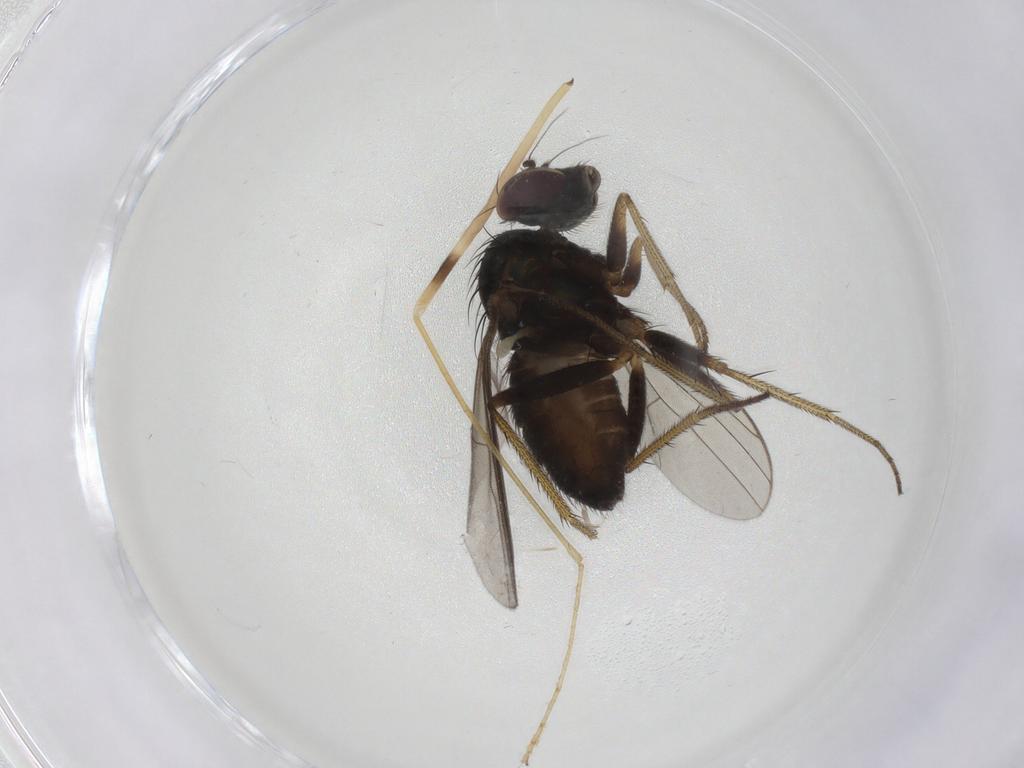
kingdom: Animalia
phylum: Arthropoda
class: Insecta
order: Diptera
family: Limoniidae
